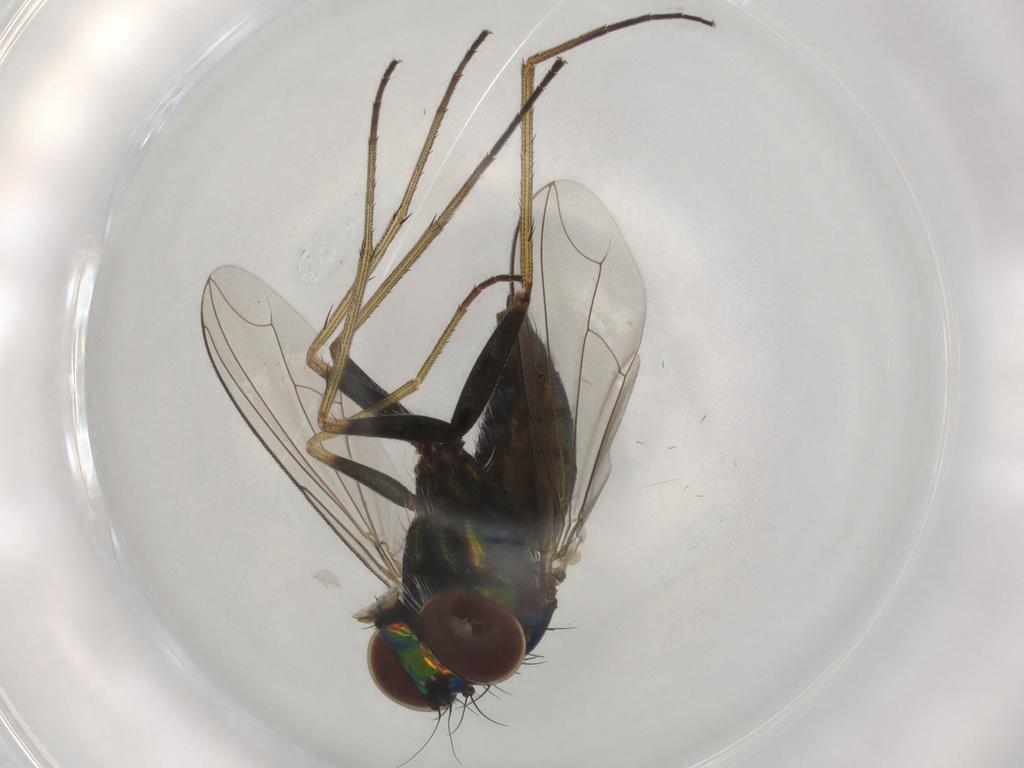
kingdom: Animalia
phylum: Arthropoda
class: Insecta
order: Diptera
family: Dolichopodidae
